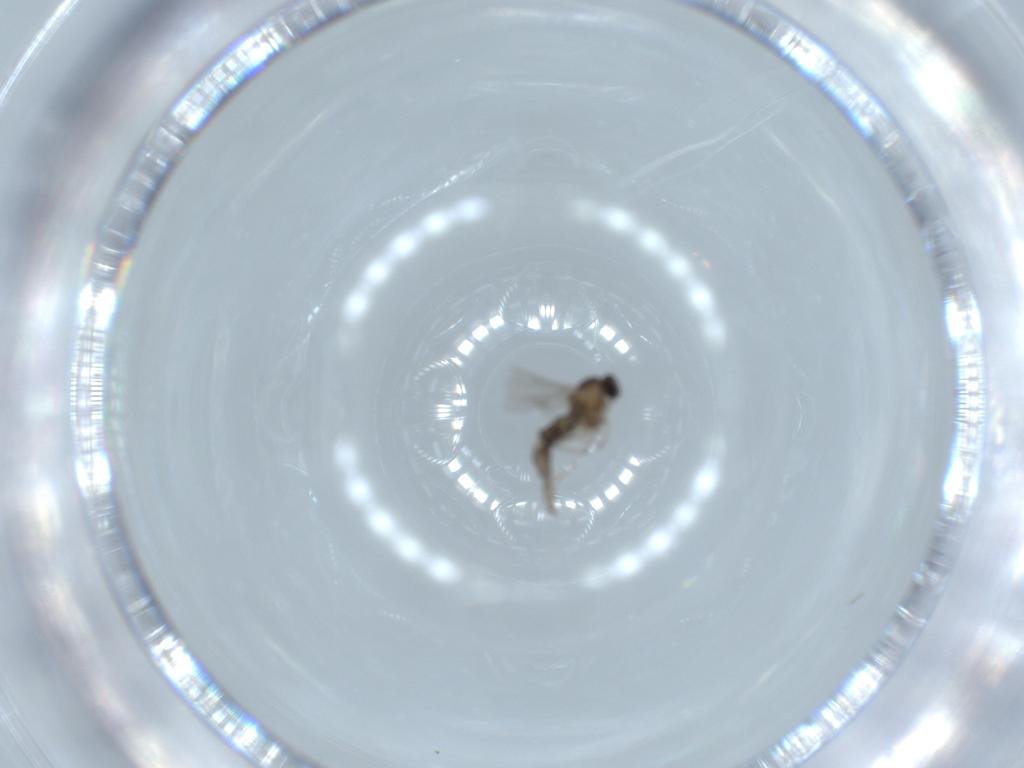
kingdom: Animalia
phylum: Arthropoda
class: Insecta
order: Diptera
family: Cecidomyiidae
